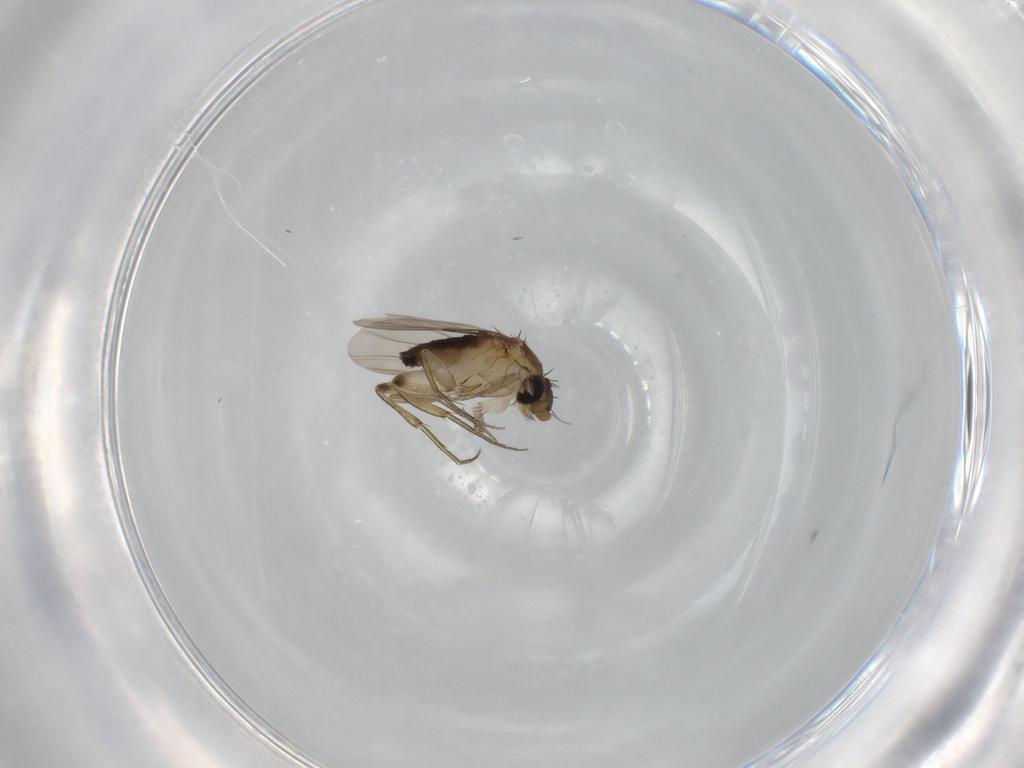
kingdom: Animalia
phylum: Arthropoda
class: Insecta
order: Diptera
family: Phoridae
